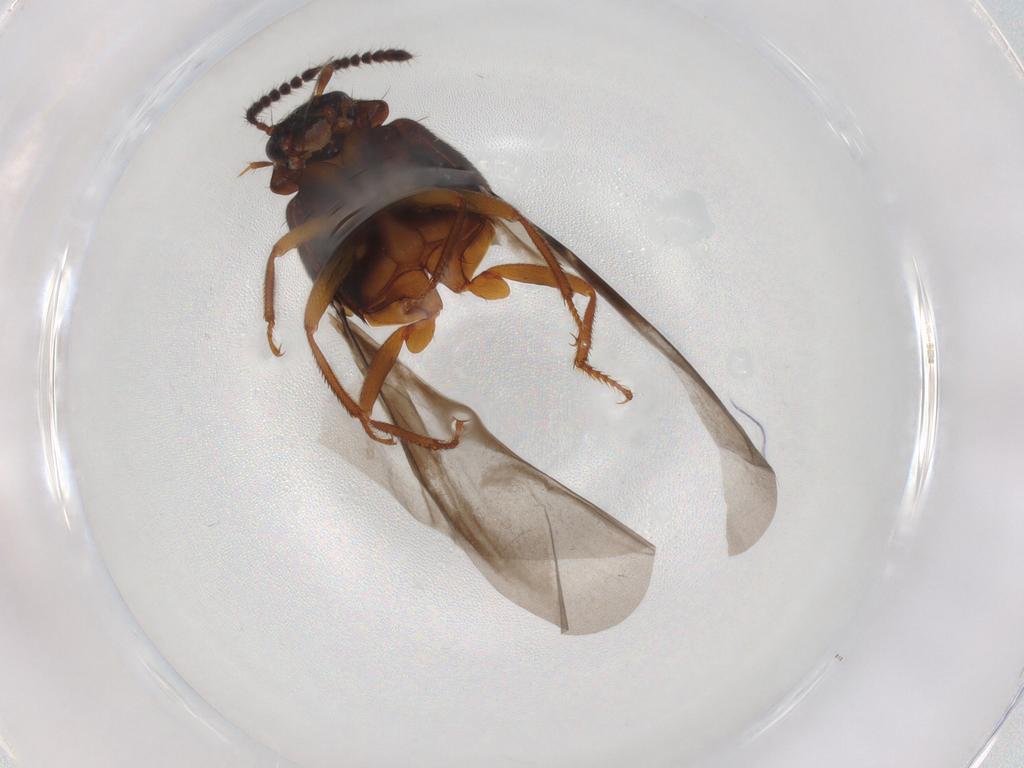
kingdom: Animalia
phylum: Arthropoda
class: Insecta
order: Coleoptera
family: Staphylinidae
